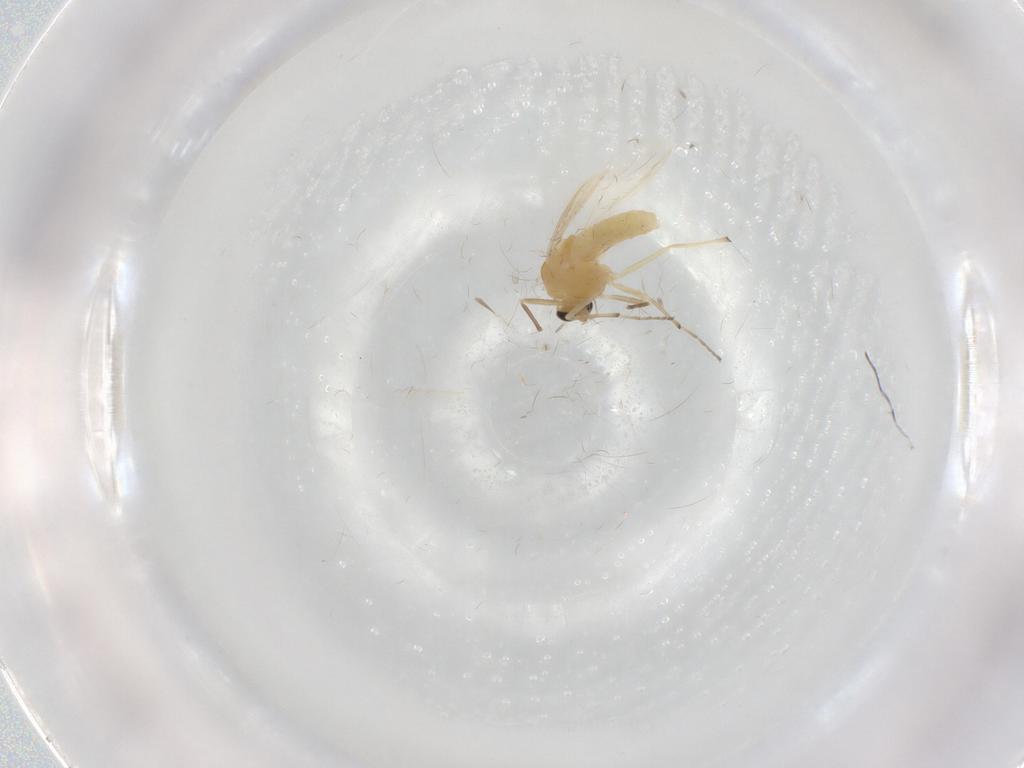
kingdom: Animalia
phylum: Arthropoda
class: Insecta
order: Diptera
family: Chironomidae
